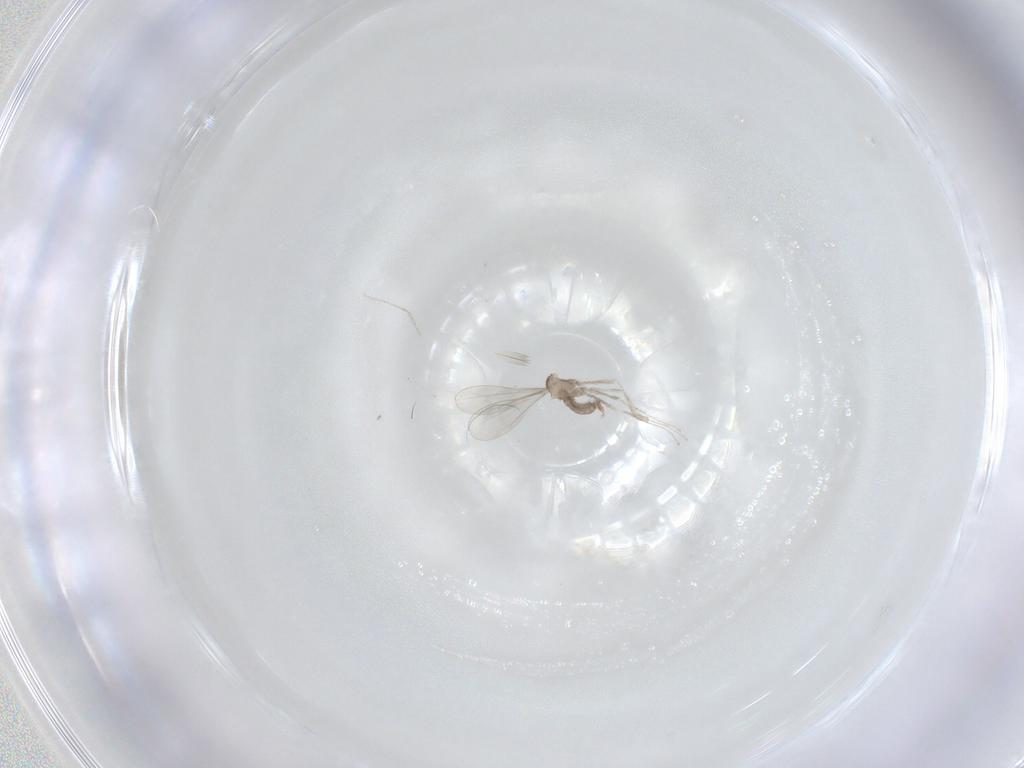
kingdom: Animalia
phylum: Arthropoda
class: Insecta
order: Diptera
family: Cecidomyiidae
